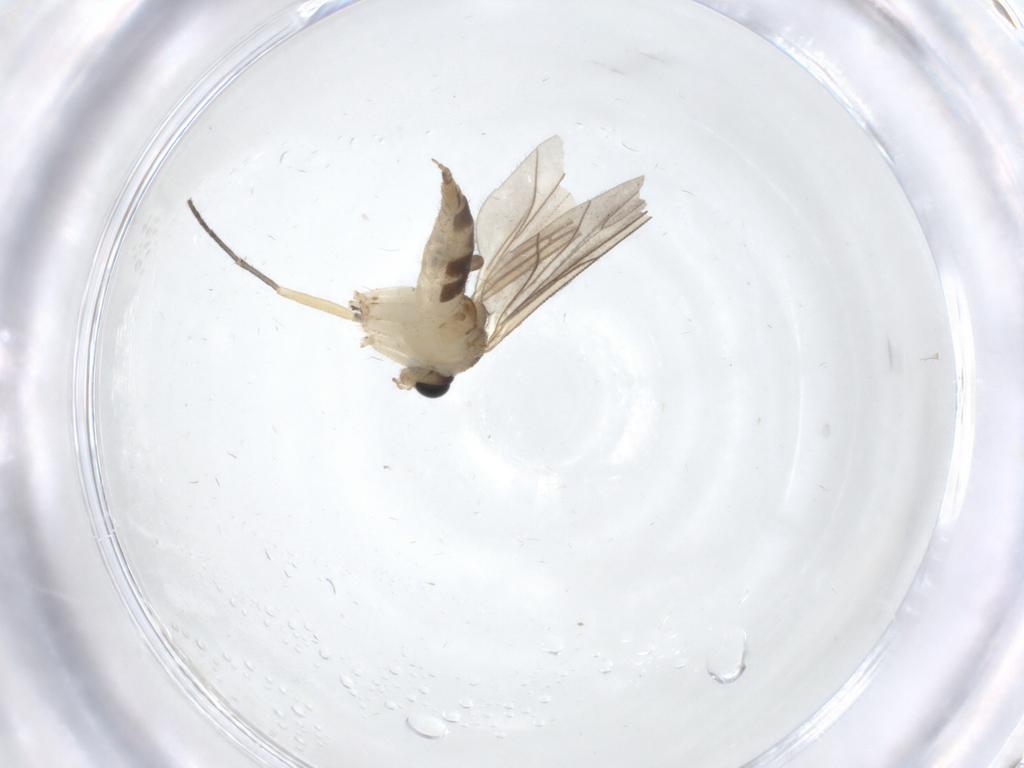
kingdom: Animalia
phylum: Arthropoda
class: Insecta
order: Diptera
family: Sciaridae
